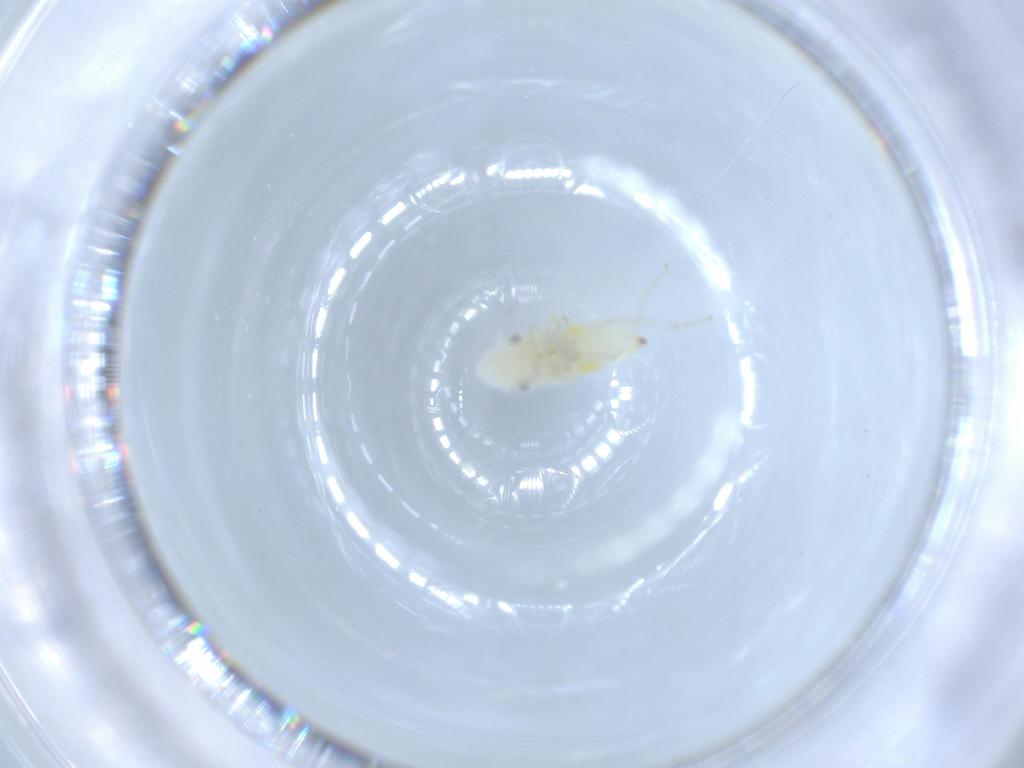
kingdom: Animalia
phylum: Arthropoda
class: Insecta
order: Hemiptera
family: Cicadellidae
